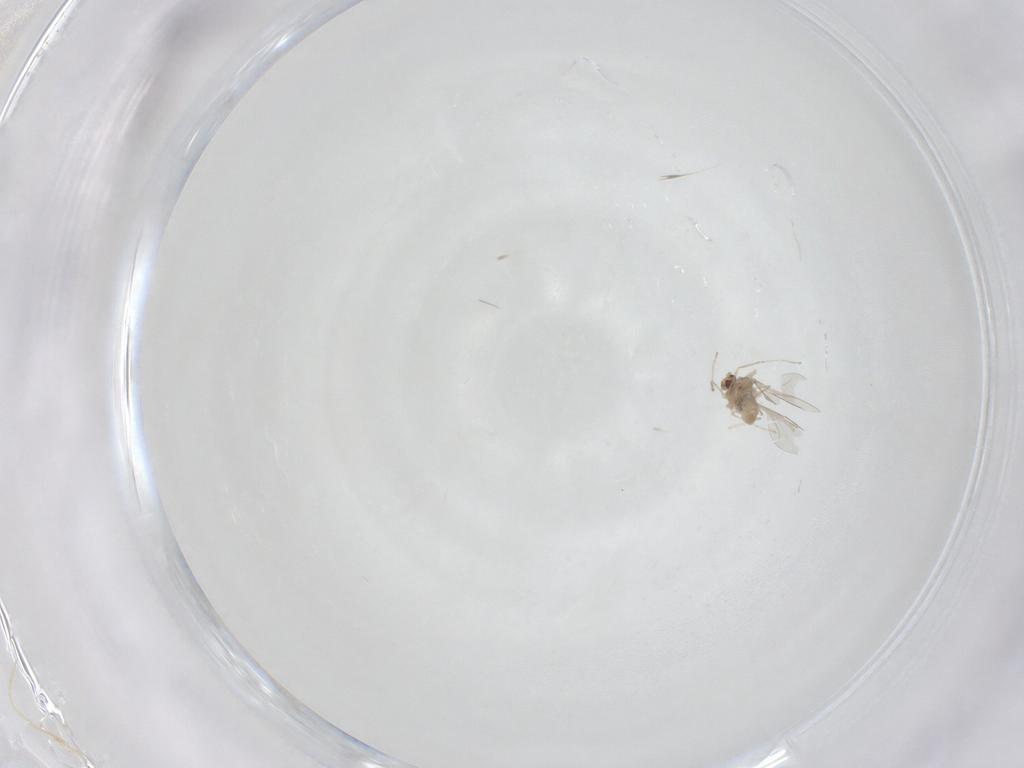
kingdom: Animalia
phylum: Arthropoda
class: Insecta
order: Diptera
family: Cecidomyiidae
